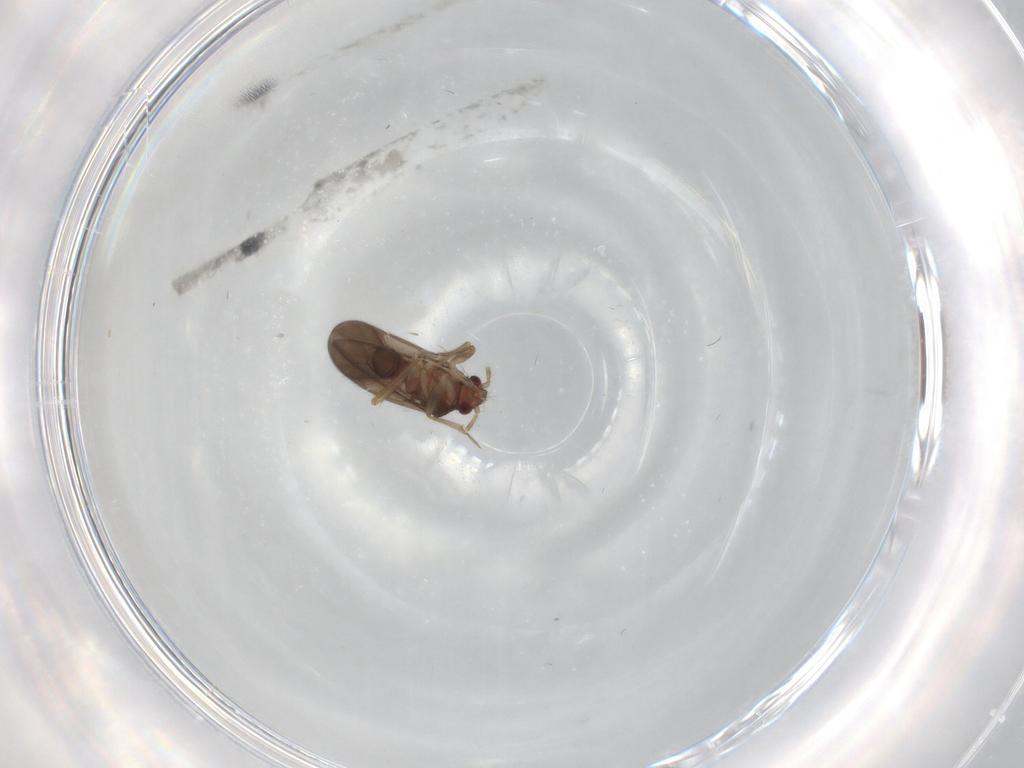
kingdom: Animalia
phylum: Arthropoda
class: Insecta
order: Hemiptera
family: Ceratocombidae
